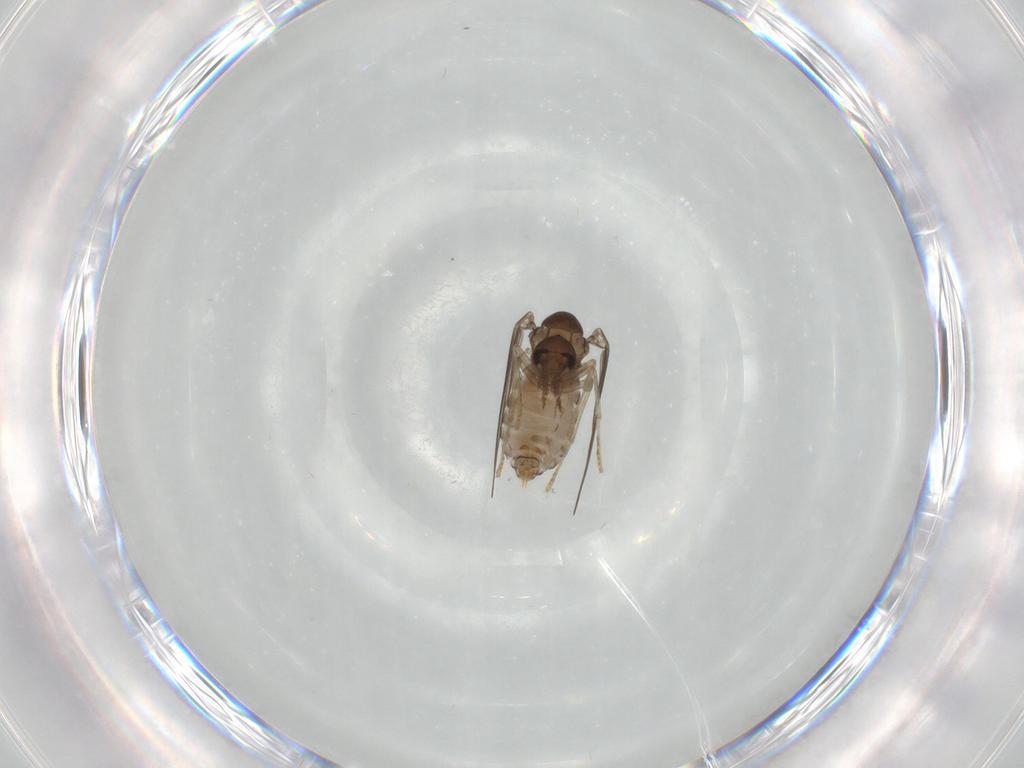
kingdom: Animalia
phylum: Arthropoda
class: Insecta
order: Diptera
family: Psychodidae
